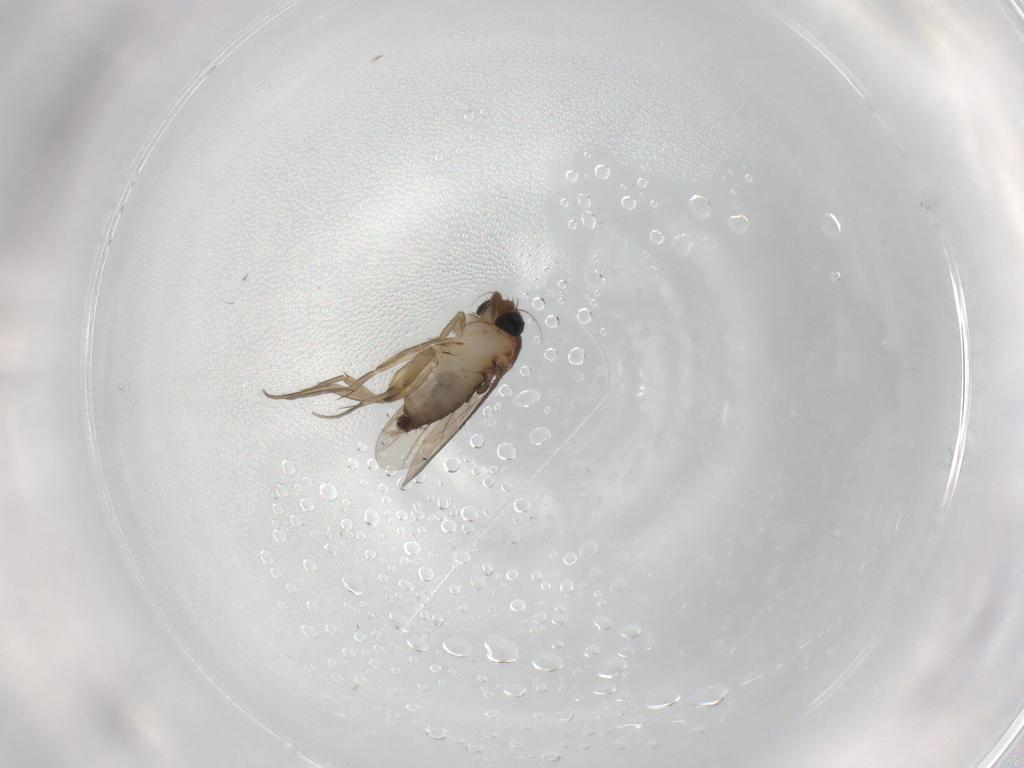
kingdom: Animalia
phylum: Arthropoda
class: Insecta
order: Diptera
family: Phoridae
